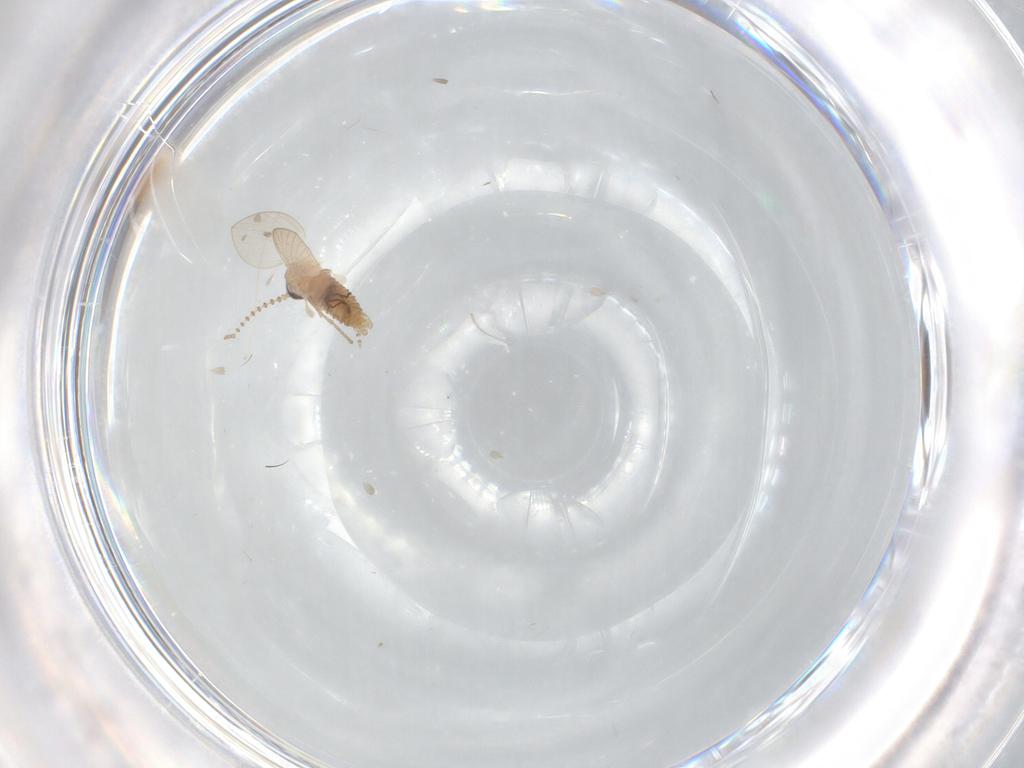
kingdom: Animalia
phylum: Arthropoda
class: Insecta
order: Diptera
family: Psychodidae
